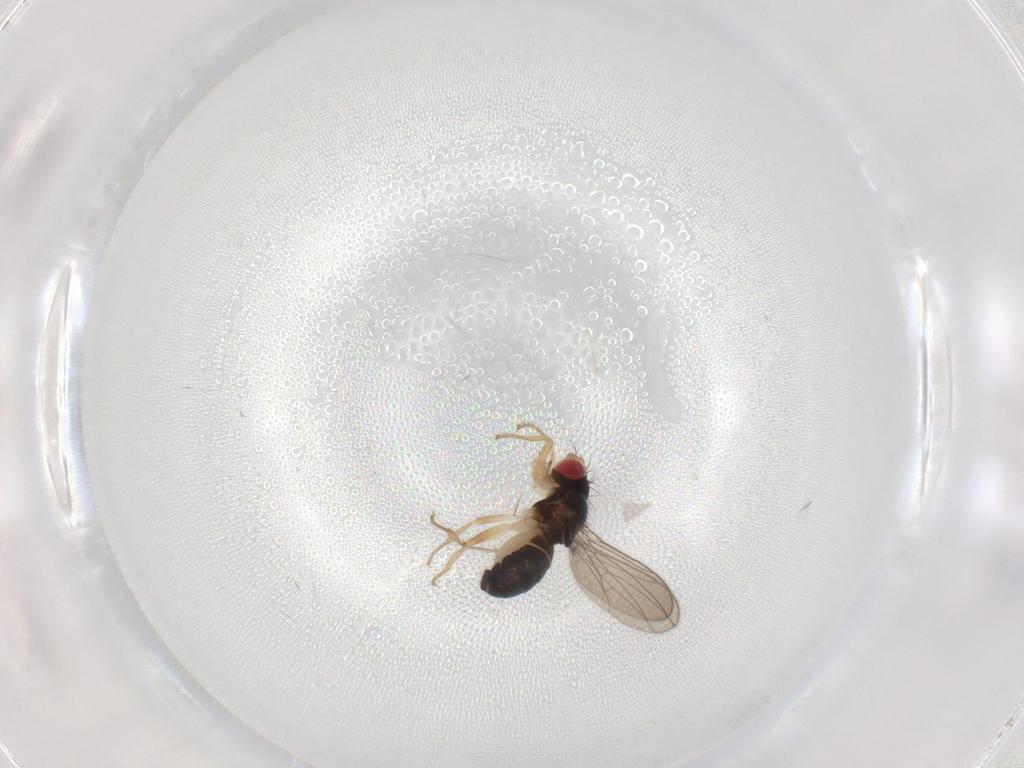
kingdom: Animalia
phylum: Arthropoda
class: Insecta
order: Diptera
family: Drosophilidae
